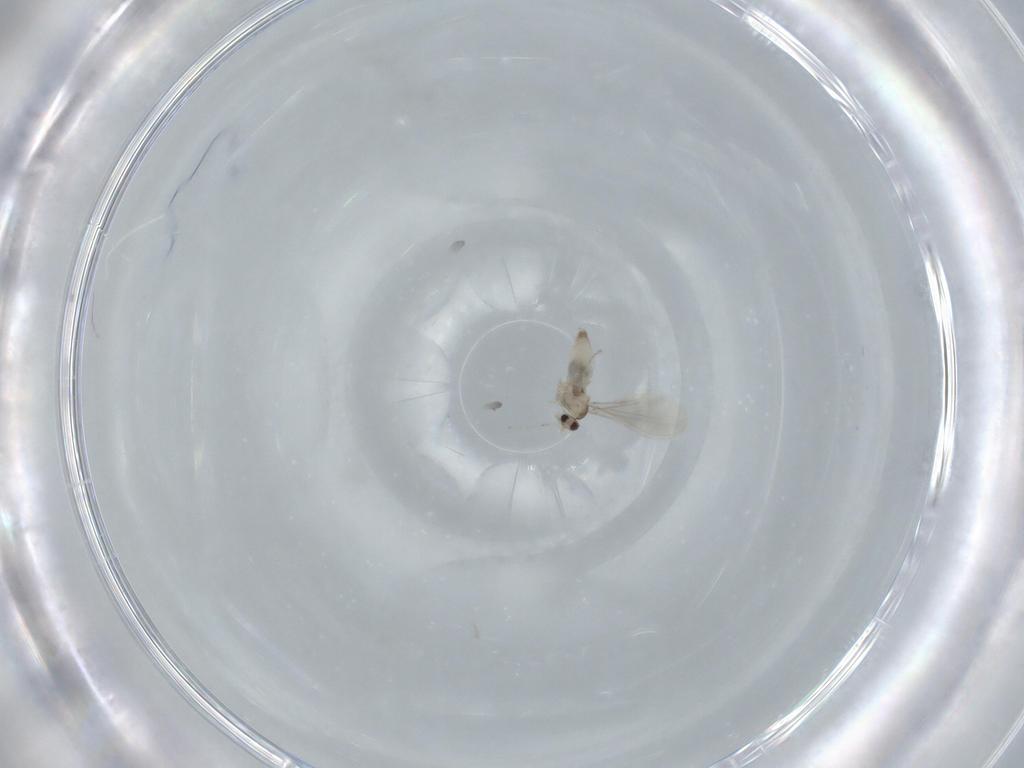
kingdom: Animalia
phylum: Arthropoda
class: Insecta
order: Diptera
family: Cecidomyiidae
